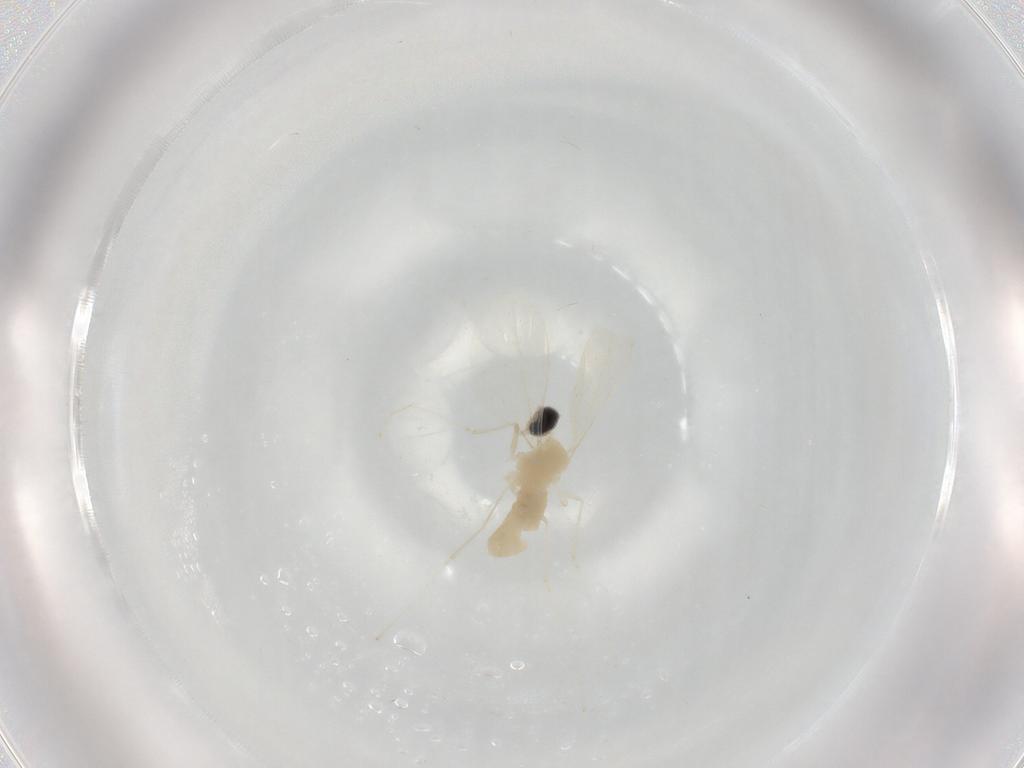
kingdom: Animalia
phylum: Arthropoda
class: Insecta
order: Diptera
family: Cecidomyiidae
